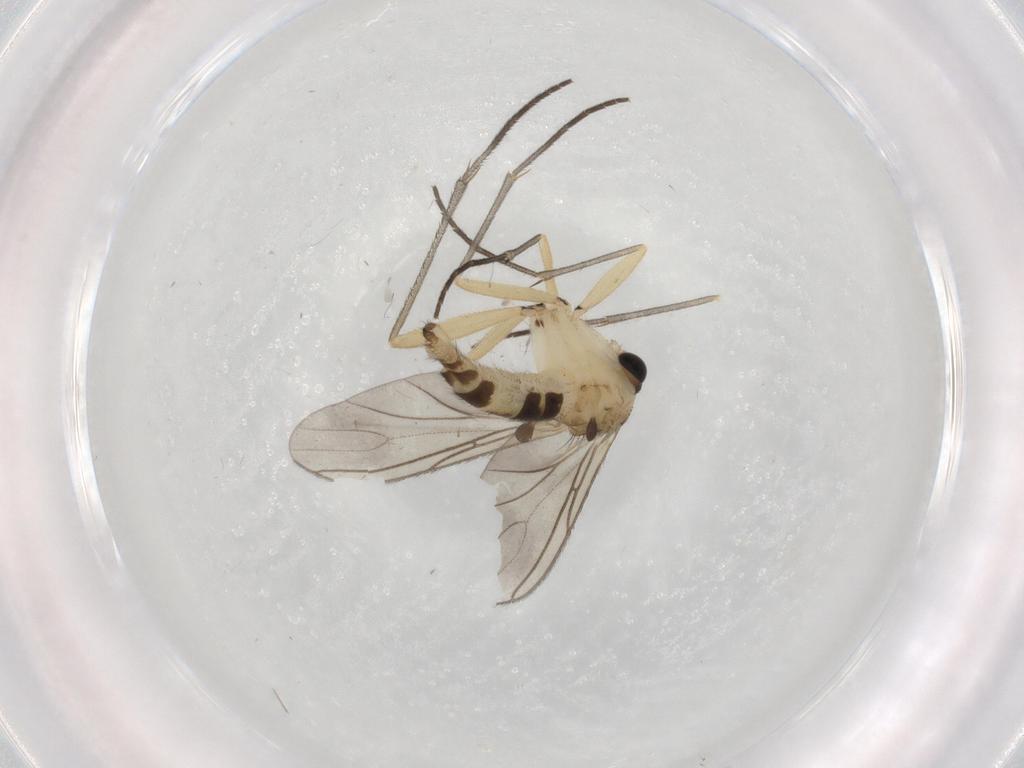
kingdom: Animalia
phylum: Arthropoda
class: Insecta
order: Diptera
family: Sciaridae
